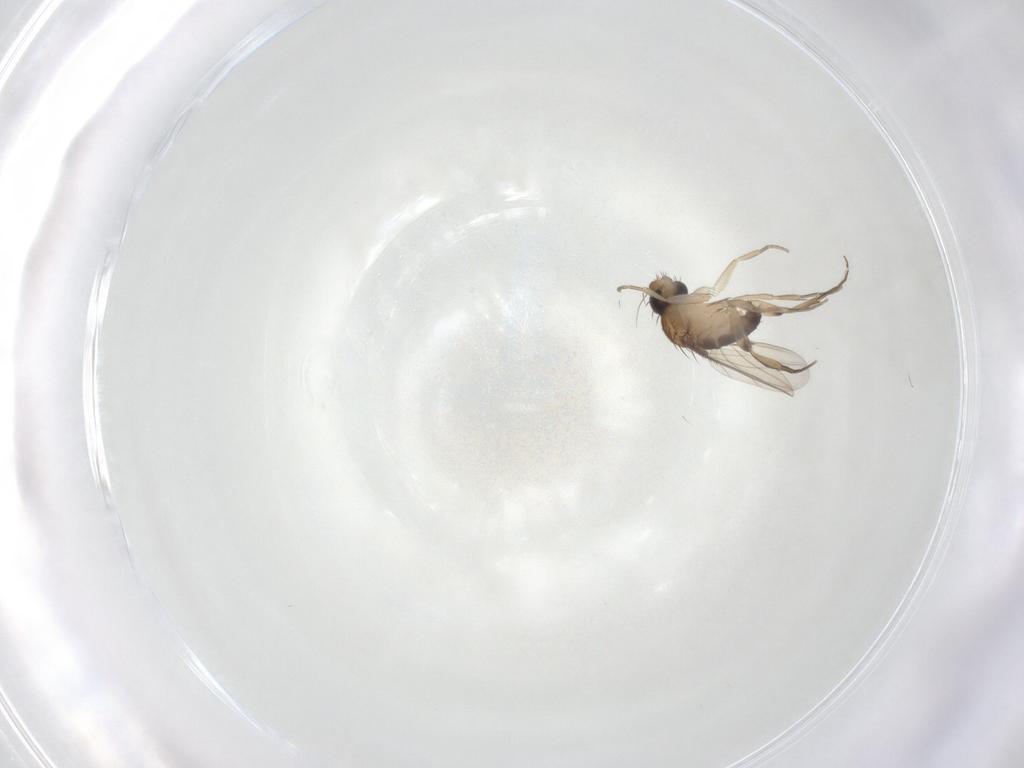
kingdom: Animalia
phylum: Arthropoda
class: Insecta
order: Diptera
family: Phoridae
